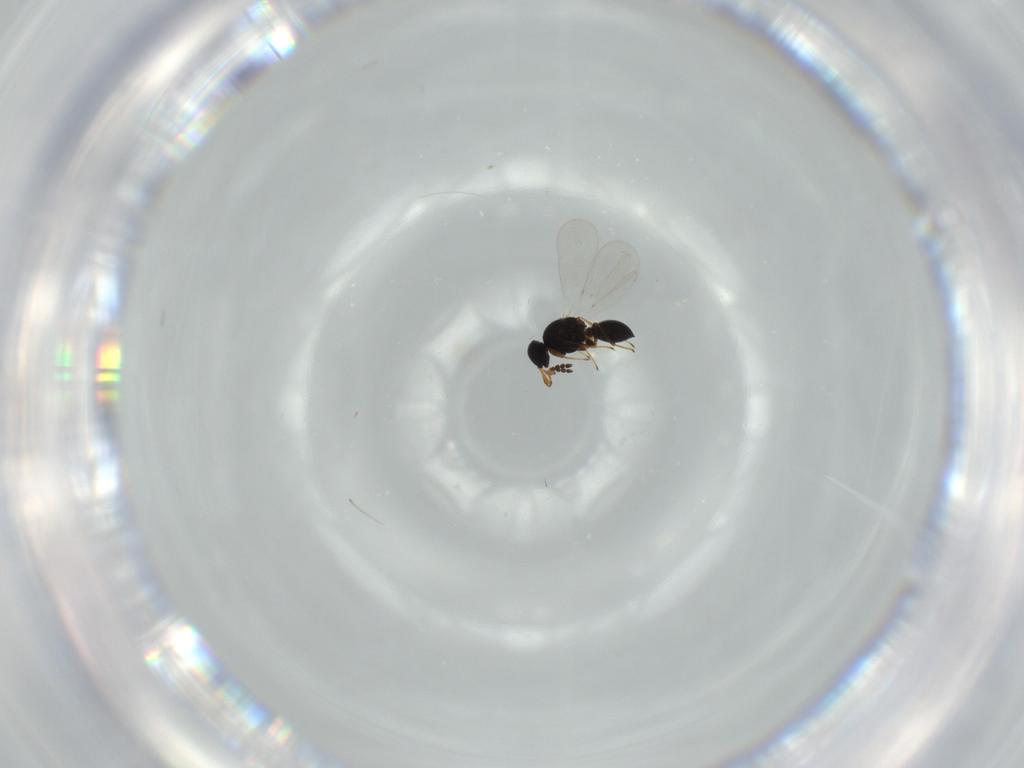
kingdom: Animalia
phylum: Arthropoda
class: Insecta
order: Hymenoptera
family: Platygastridae
